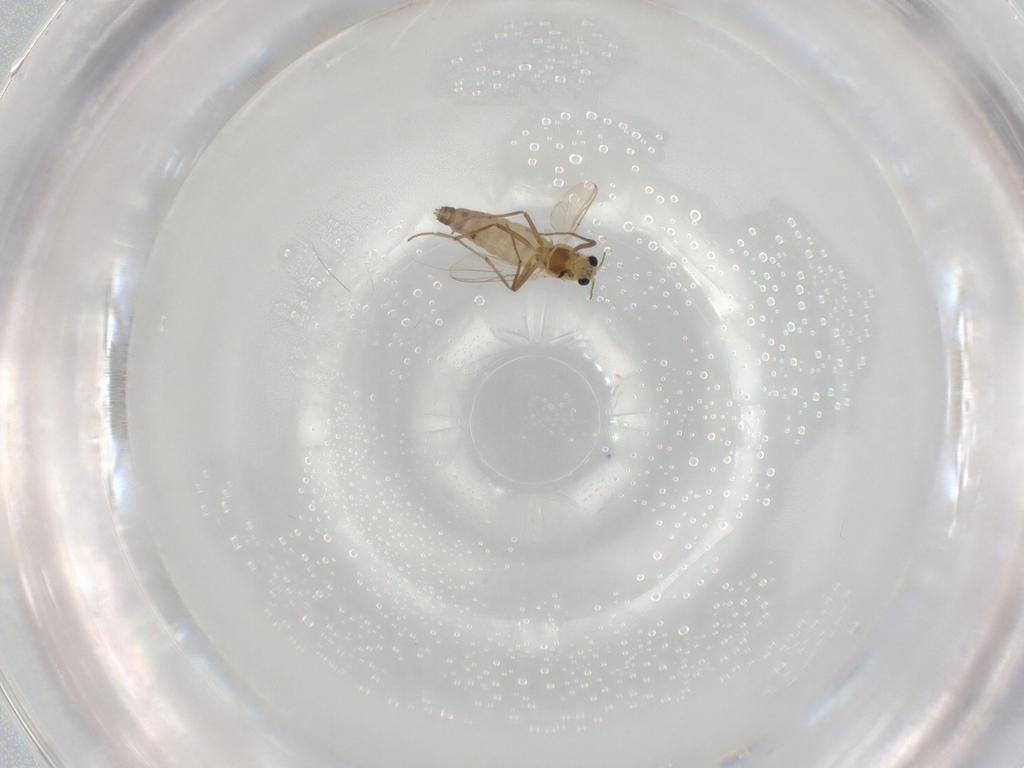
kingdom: Animalia
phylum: Arthropoda
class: Insecta
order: Diptera
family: Chironomidae
